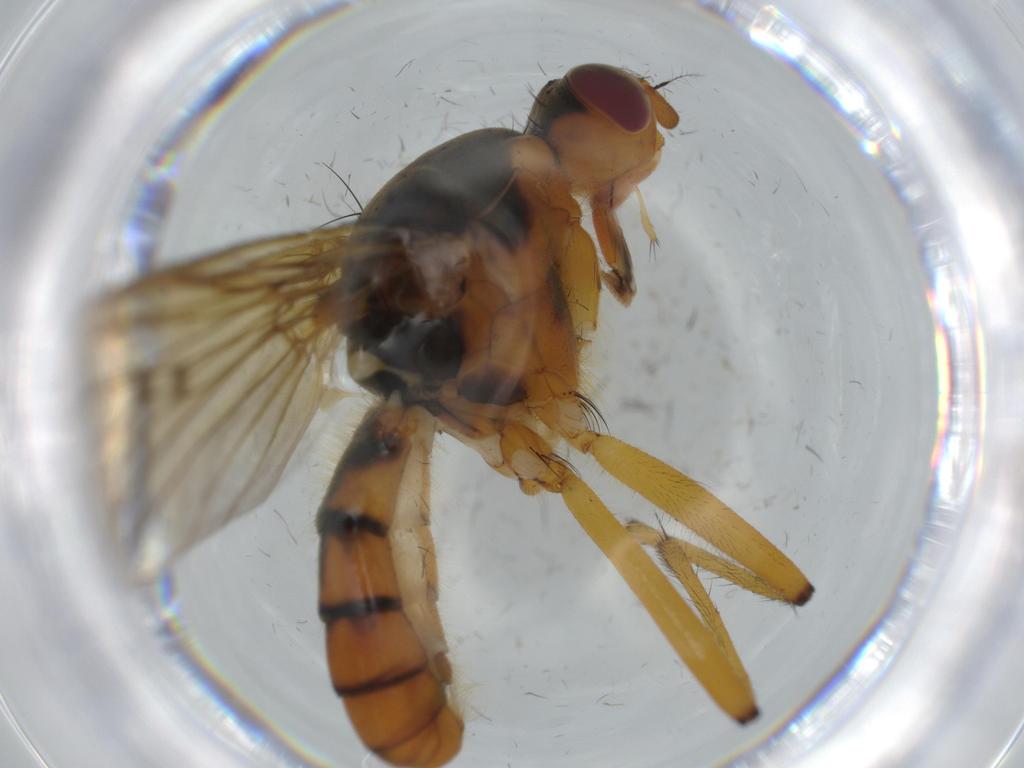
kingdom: Animalia
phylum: Arthropoda
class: Insecta
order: Diptera
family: Scathophagidae
